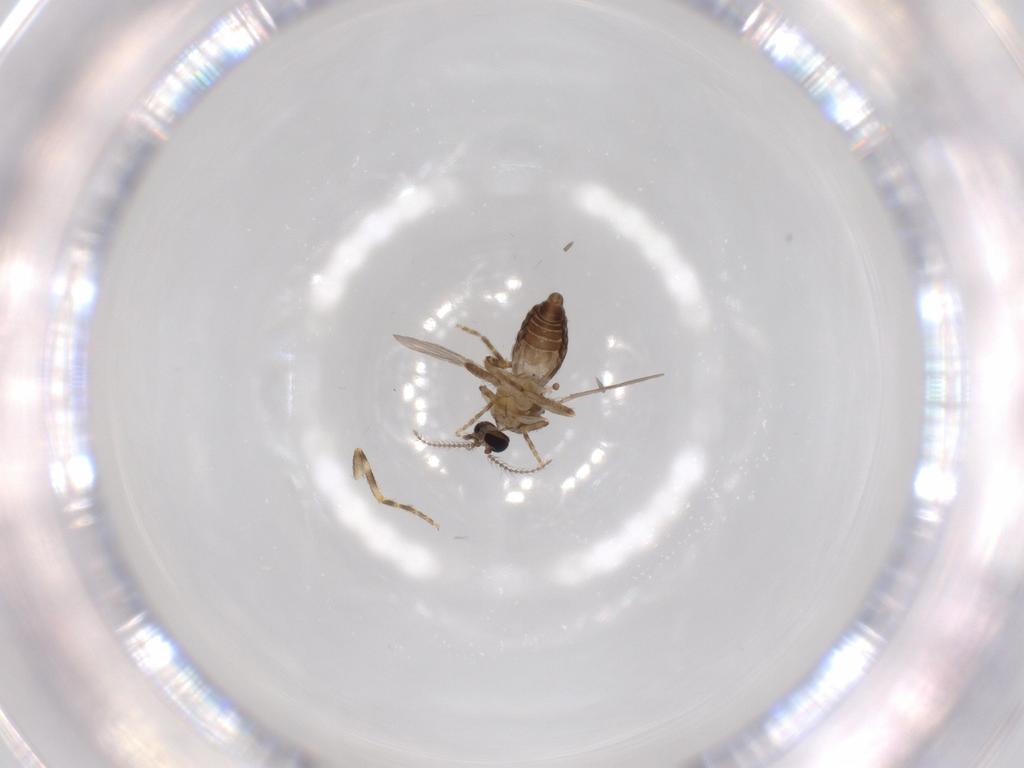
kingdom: Animalia
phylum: Arthropoda
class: Insecta
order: Diptera
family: Ceratopogonidae
